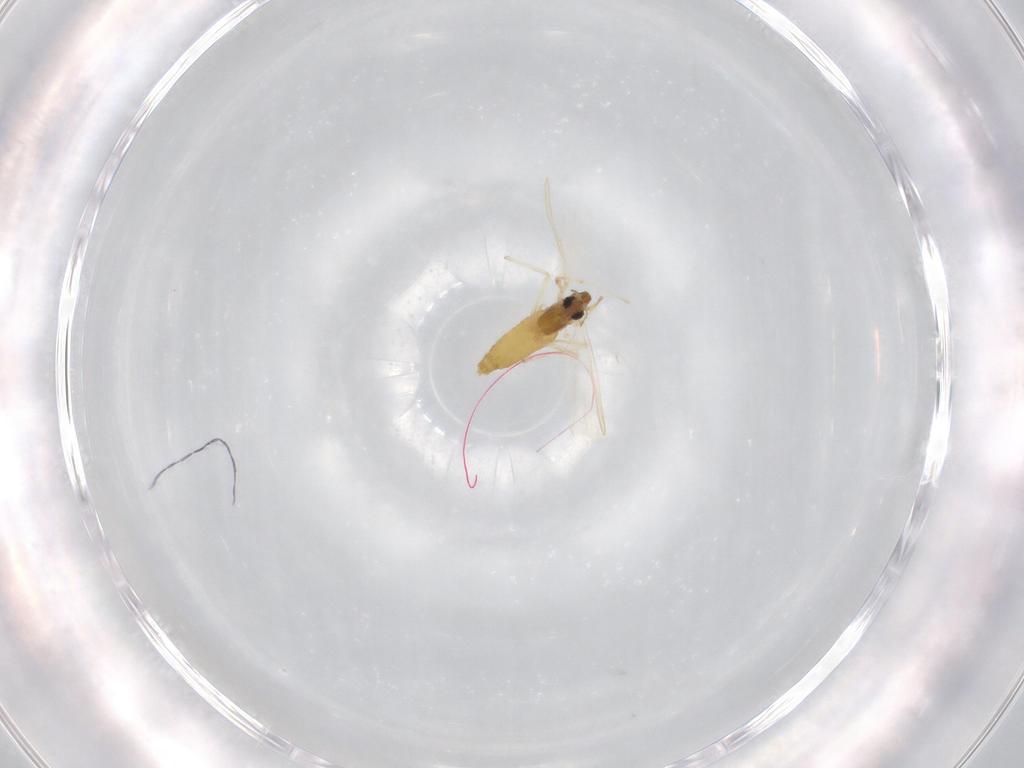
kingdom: Animalia
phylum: Arthropoda
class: Insecta
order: Diptera
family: Chironomidae
